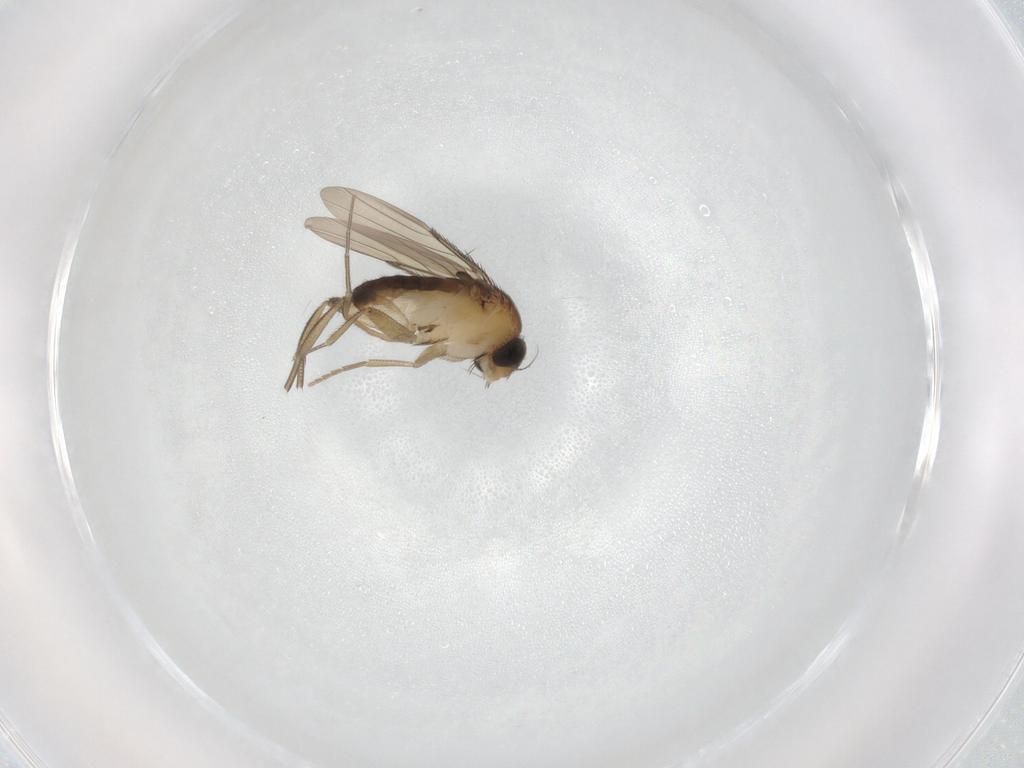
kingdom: Animalia
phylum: Arthropoda
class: Insecta
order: Diptera
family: Phoridae
